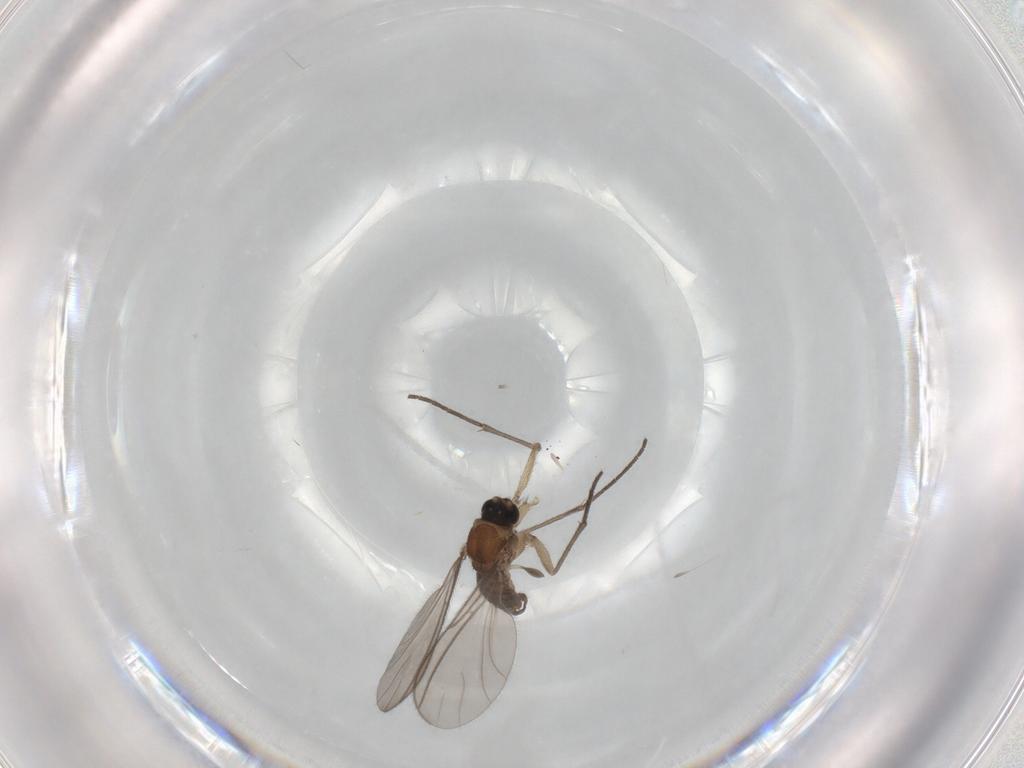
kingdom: Animalia
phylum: Arthropoda
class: Insecta
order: Diptera
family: Sciaridae
